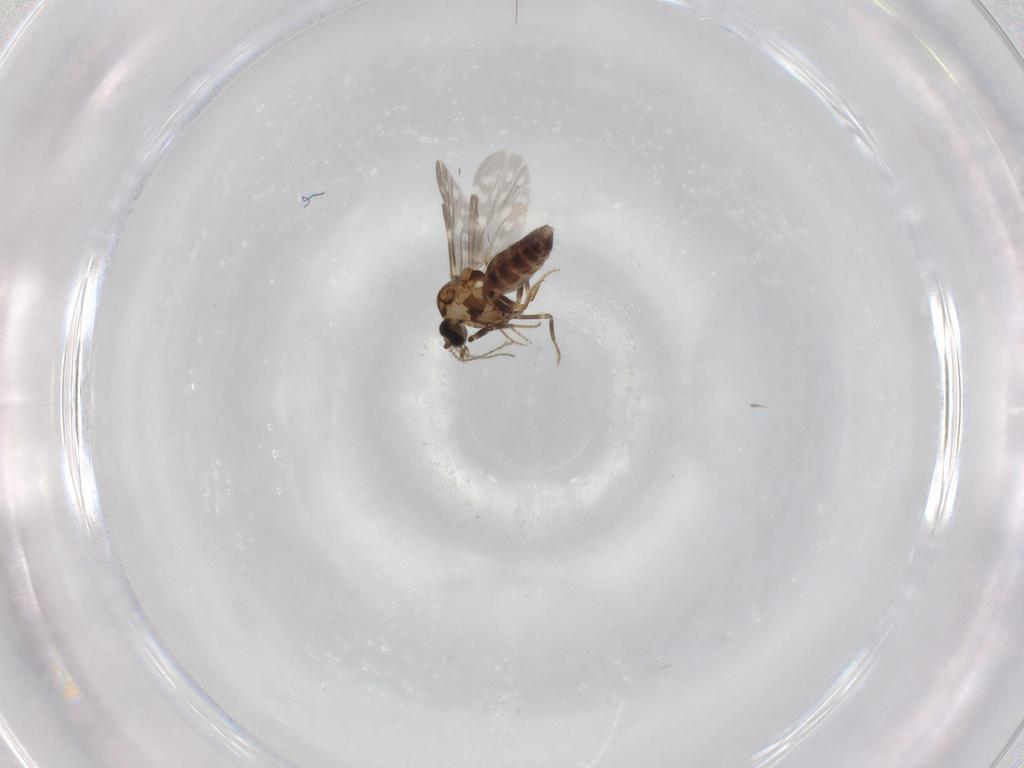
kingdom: Animalia
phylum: Arthropoda
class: Insecta
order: Diptera
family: Ceratopogonidae
